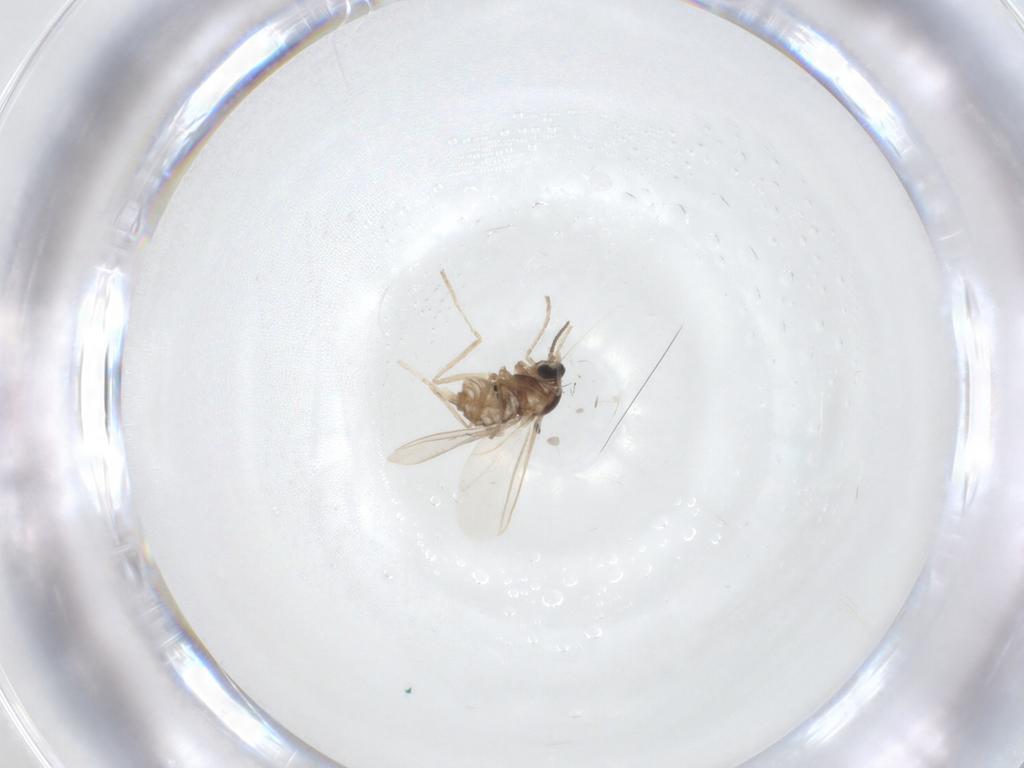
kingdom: Animalia
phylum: Arthropoda
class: Insecta
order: Diptera
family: Cecidomyiidae
